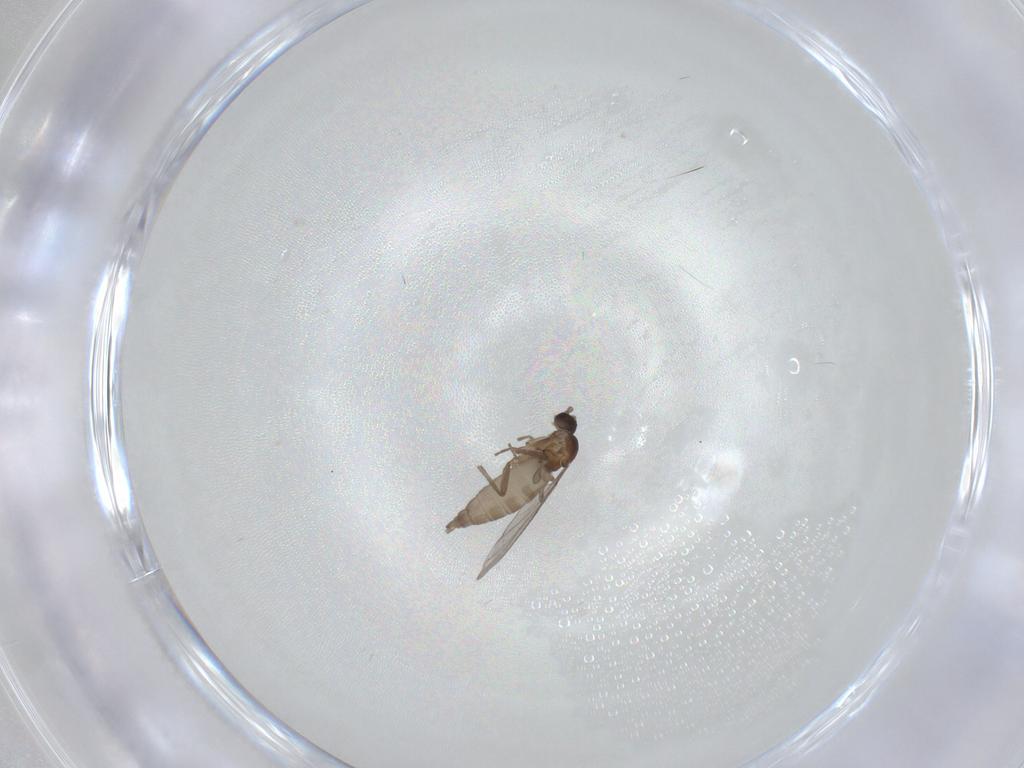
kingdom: Animalia
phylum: Arthropoda
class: Insecta
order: Diptera
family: Muscidae
